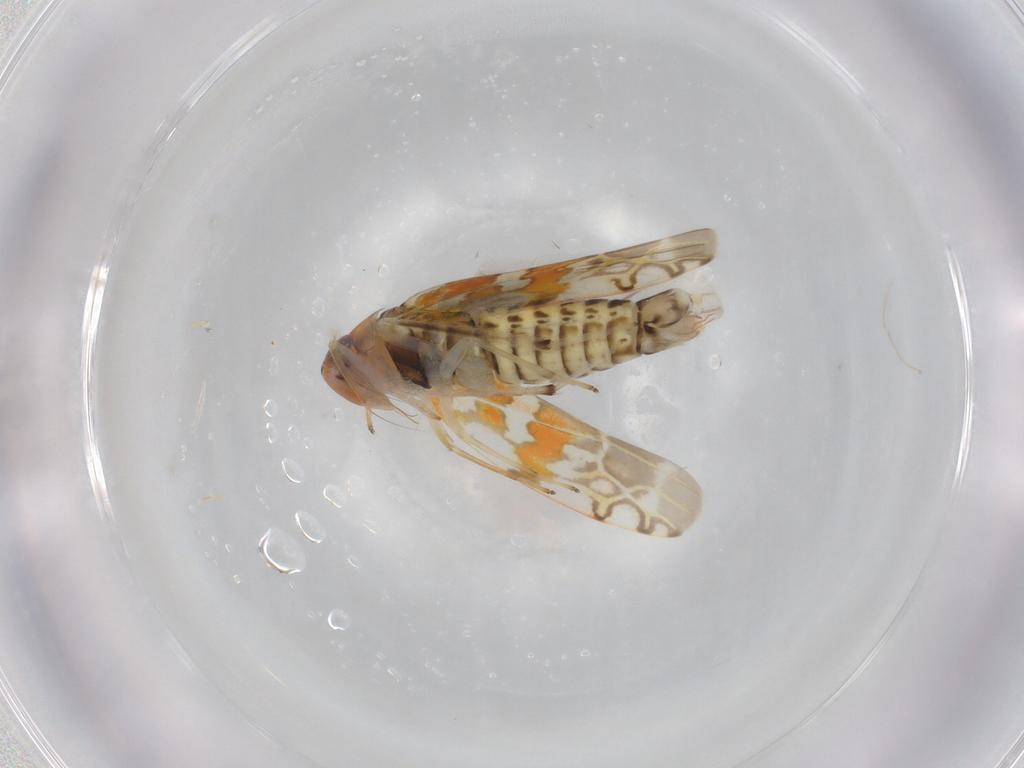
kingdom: Animalia
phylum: Arthropoda
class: Insecta
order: Hemiptera
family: Cicadellidae
